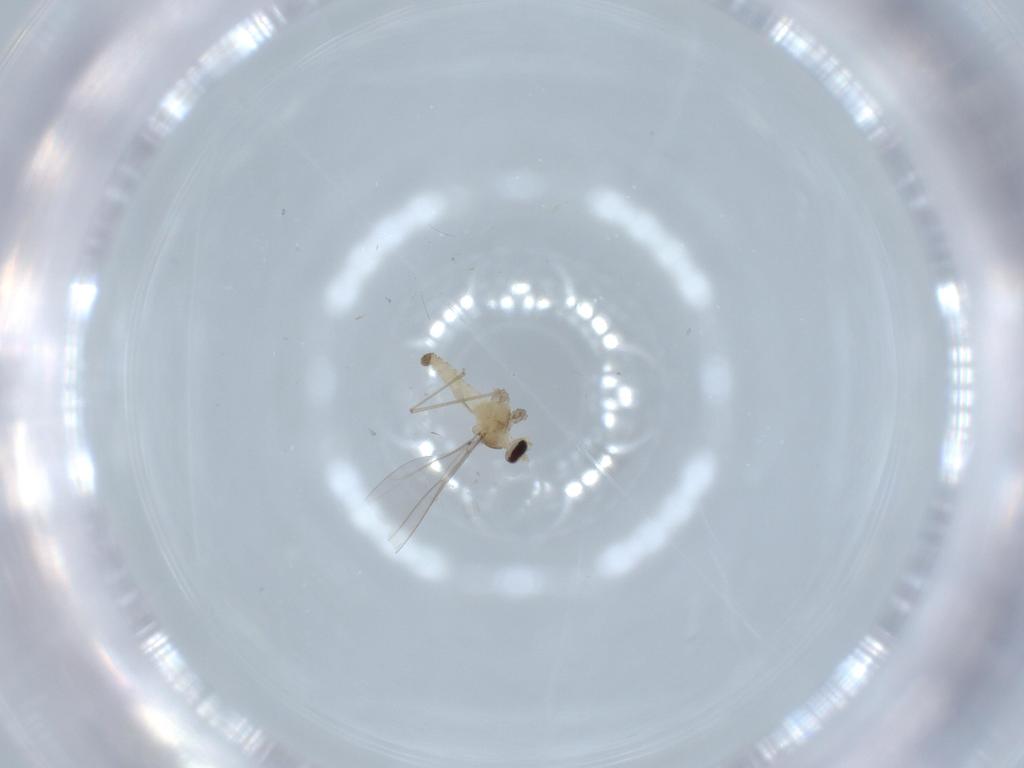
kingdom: Animalia
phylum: Arthropoda
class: Insecta
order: Diptera
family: Cecidomyiidae
